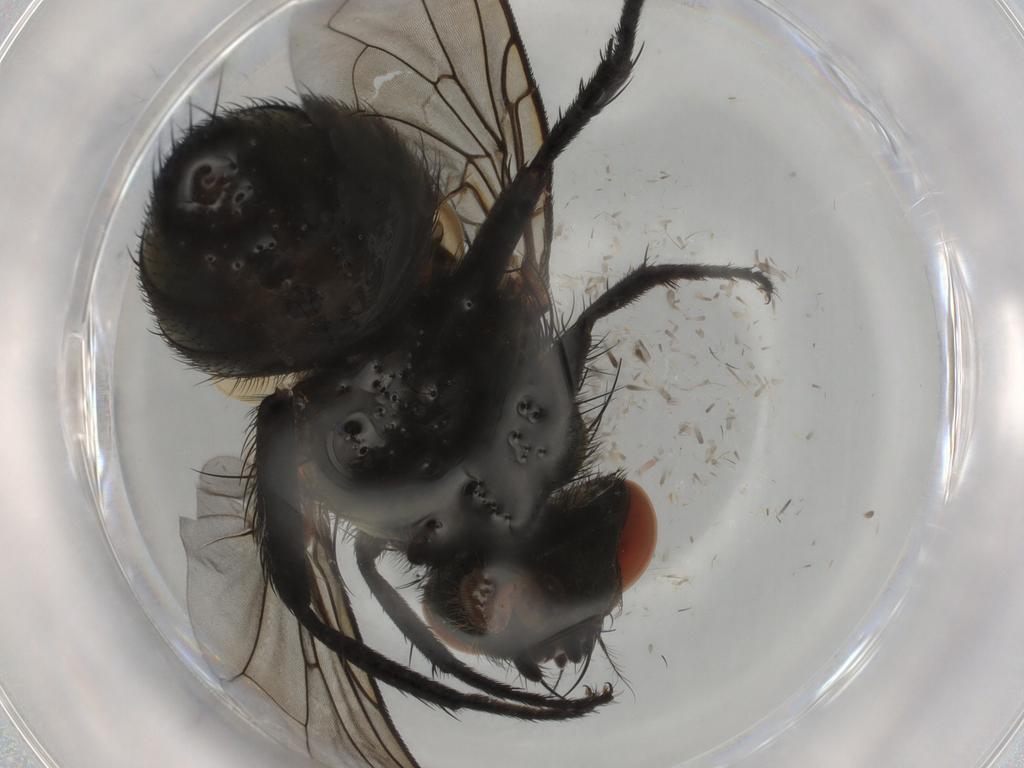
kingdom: Animalia
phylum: Arthropoda
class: Insecta
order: Diptera
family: Sarcophagidae
